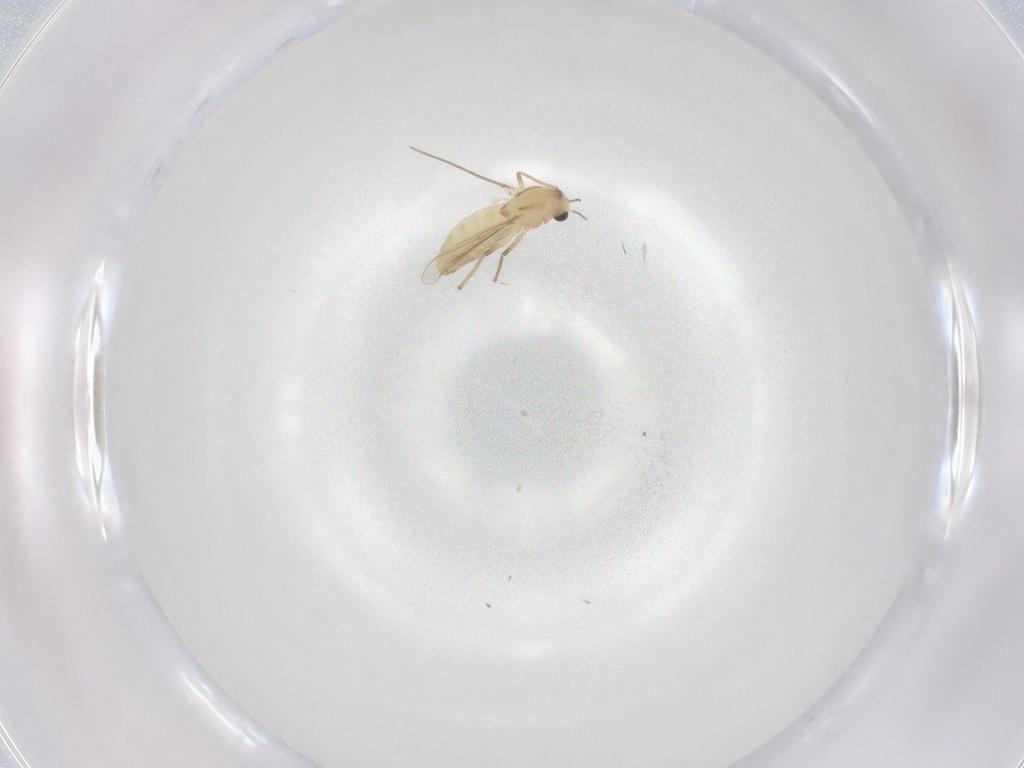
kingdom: Animalia
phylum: Arthropoda
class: Insecta
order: Diptera
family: Chironomidae
